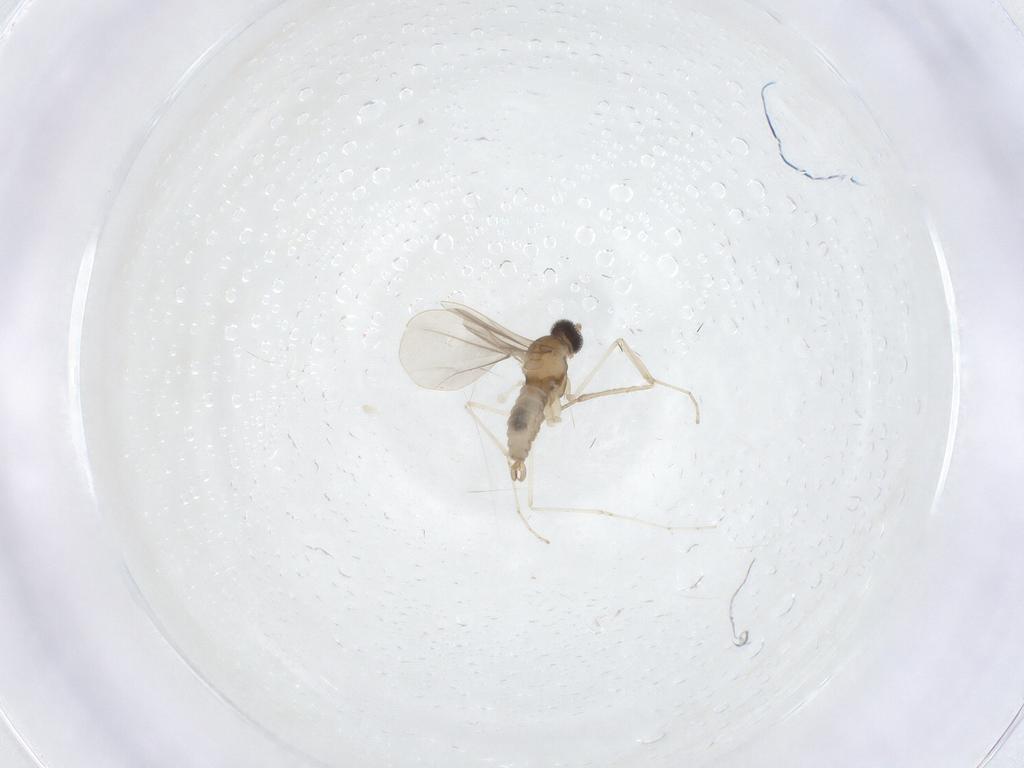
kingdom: Animalia
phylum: Arthropoda
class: Insecta
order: Diptera
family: Cecidomyiidae
